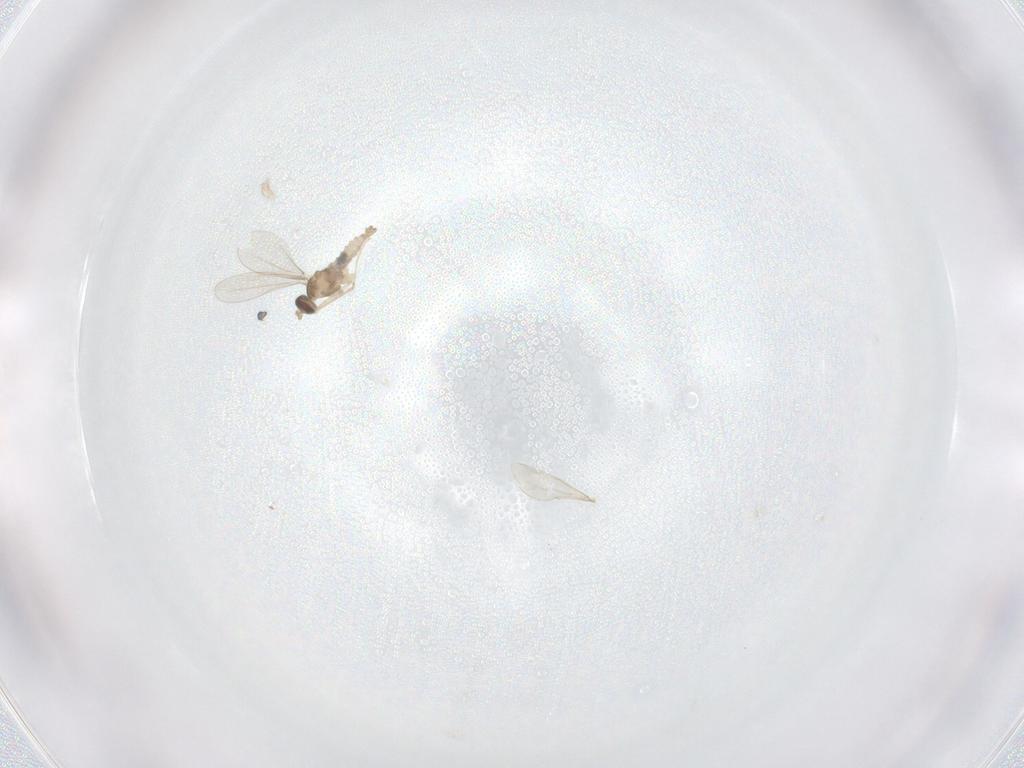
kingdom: Animalia
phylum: Arthropoda
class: Insecta
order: Diptera
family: Cecidomyiidae
